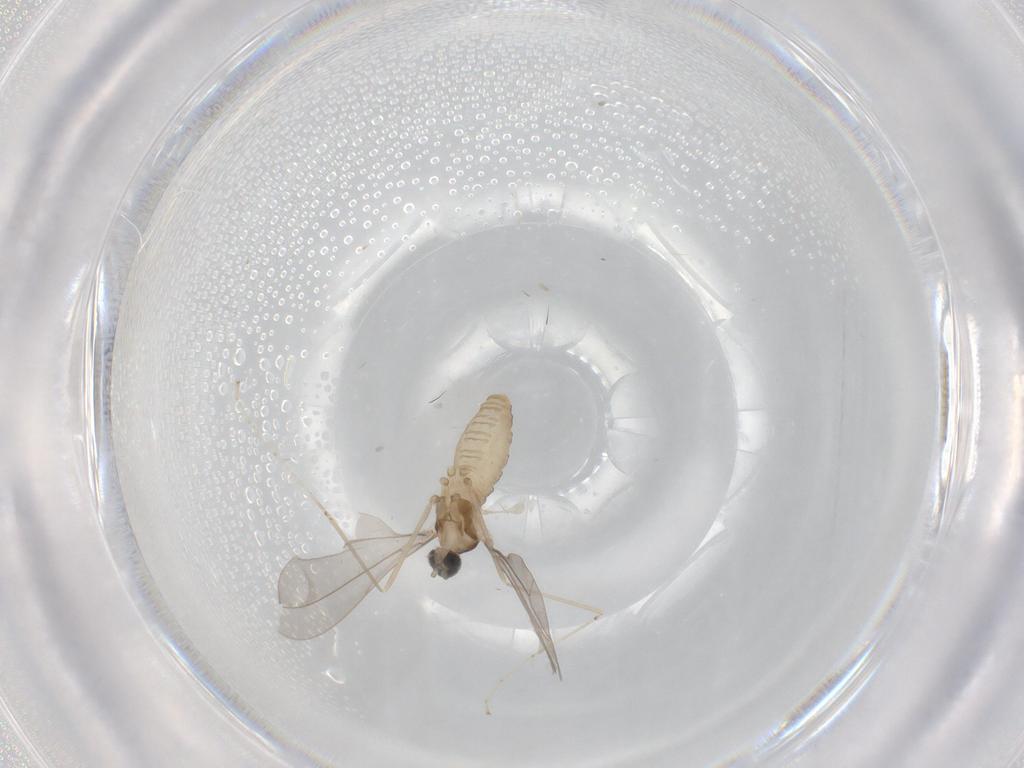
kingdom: Animalia
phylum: Arthropoda
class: Insecta
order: Diptera
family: Cecidomyiidae
